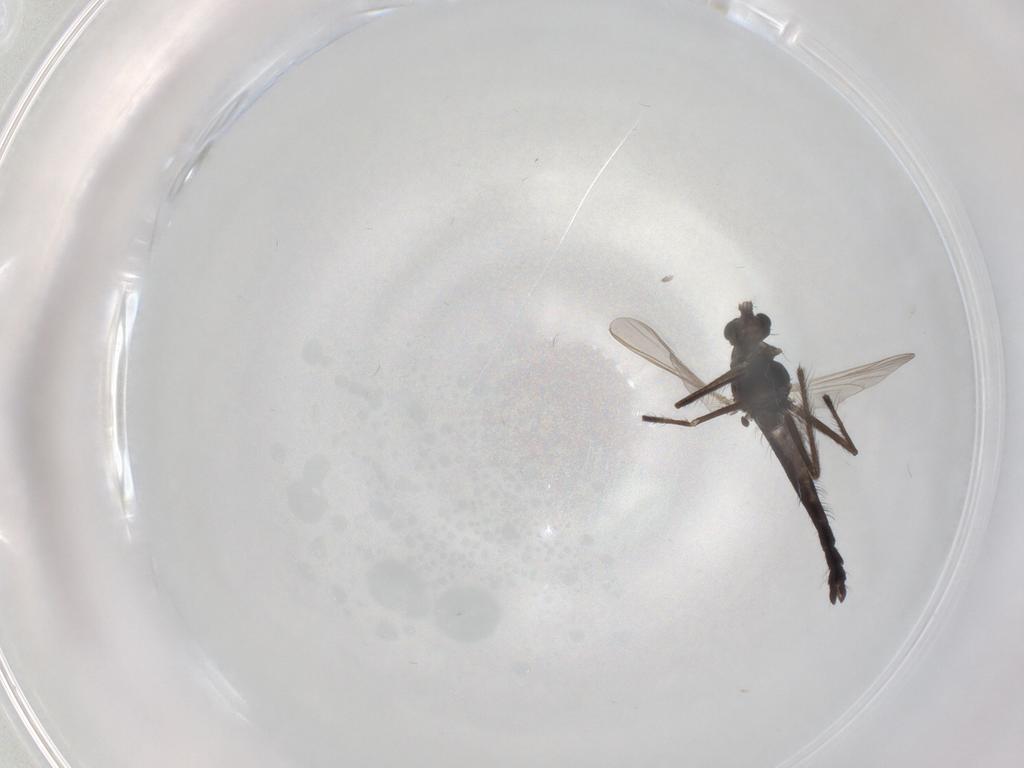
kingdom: Animalia
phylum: Arthropoda
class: Insecta
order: Diptera
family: Chironomidae
